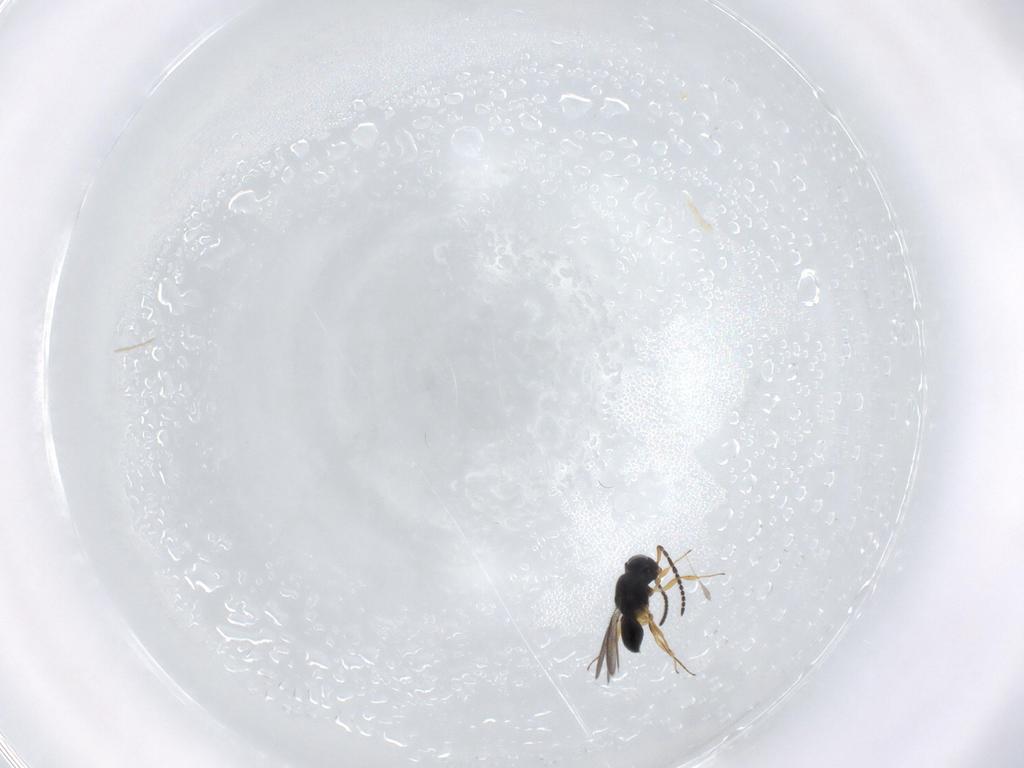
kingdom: Animalia
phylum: Arthropoda
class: Insecta
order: Hymenoptera
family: Scelionidae
